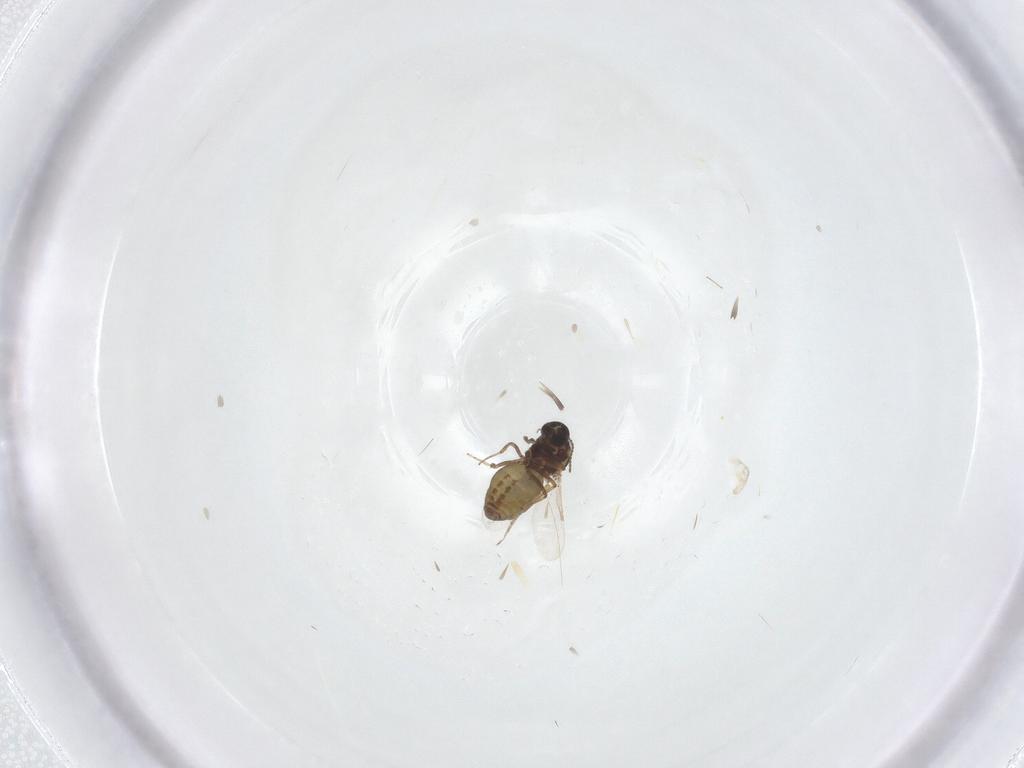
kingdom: Animalia
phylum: Arthropoda
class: Insecta
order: Diptera
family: Ceratopogonidae
